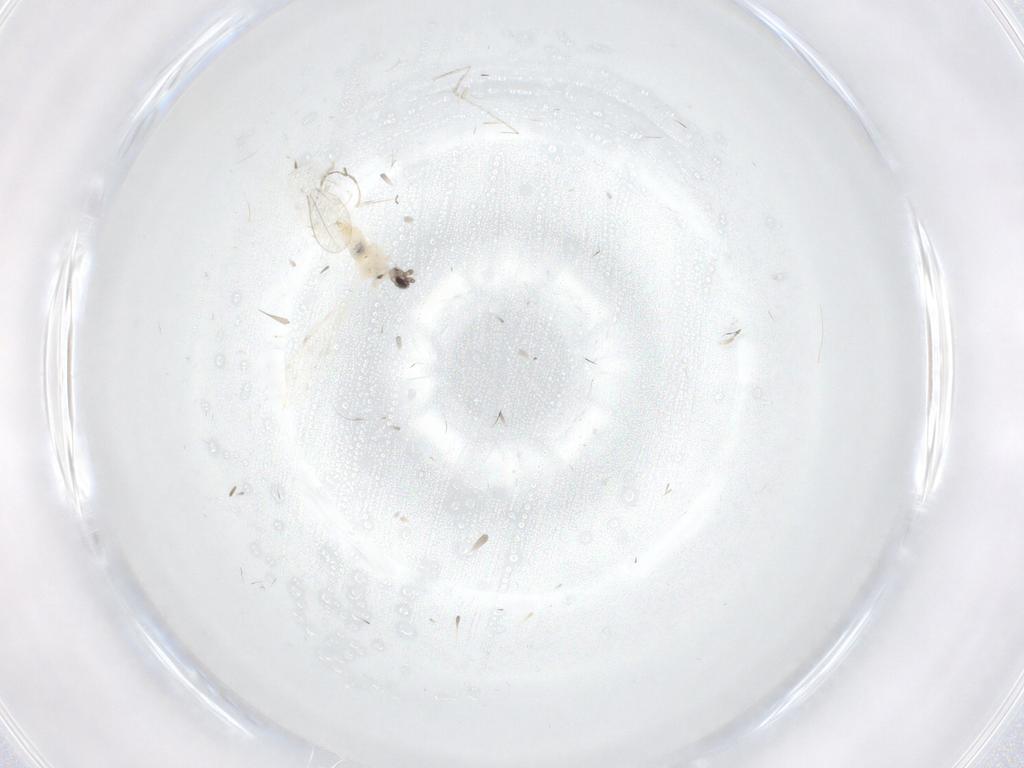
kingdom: Animalia
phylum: Arthropoda
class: Insecta
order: Diptera
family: Cecidomyiidae
